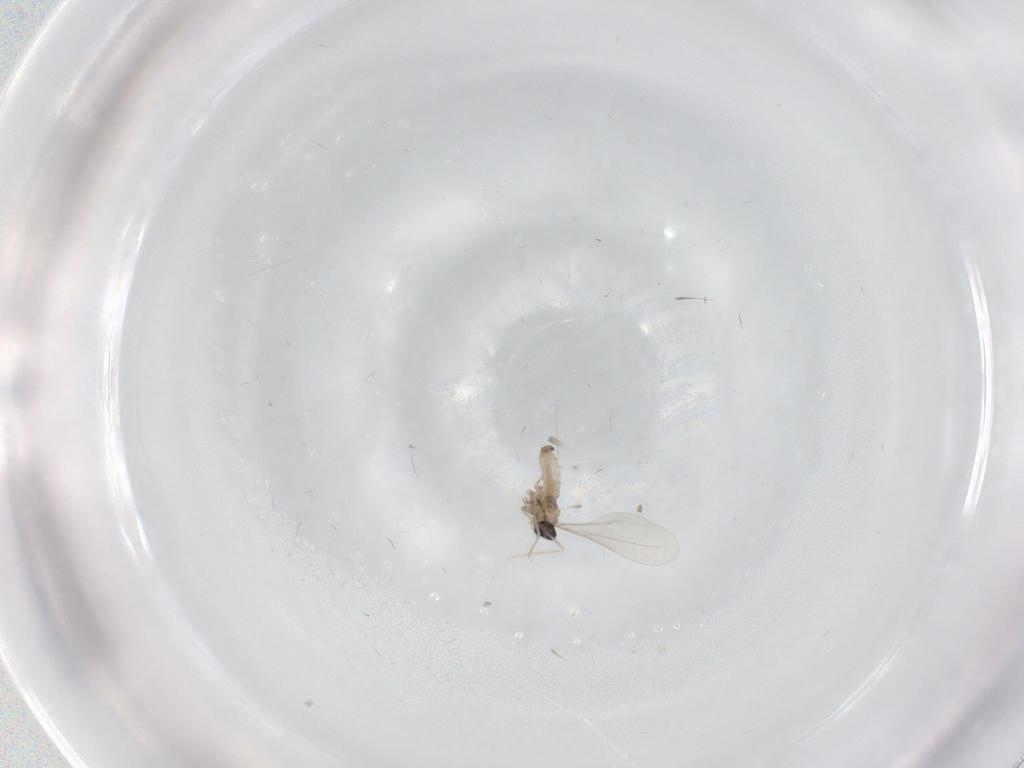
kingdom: Animalia
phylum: Arthropoda
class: Insecta
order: Diptera
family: Cecidomyiidae
